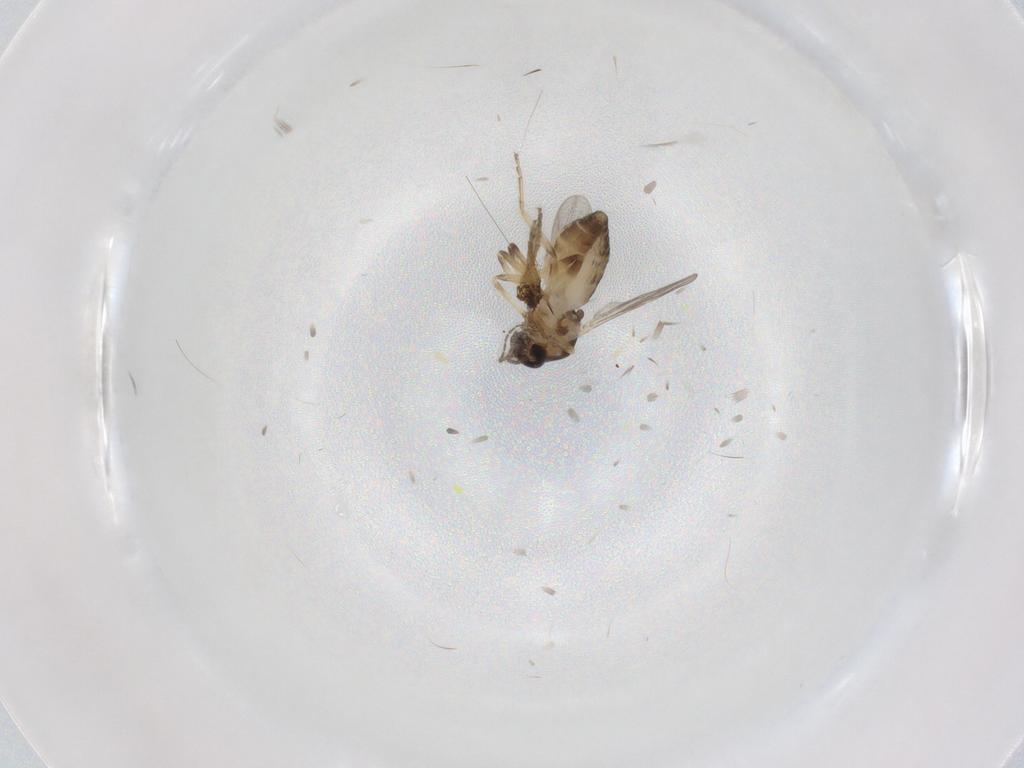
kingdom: Animalia
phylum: Arthropoda
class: Insecta
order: Diptera
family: Ceratopogonidae
